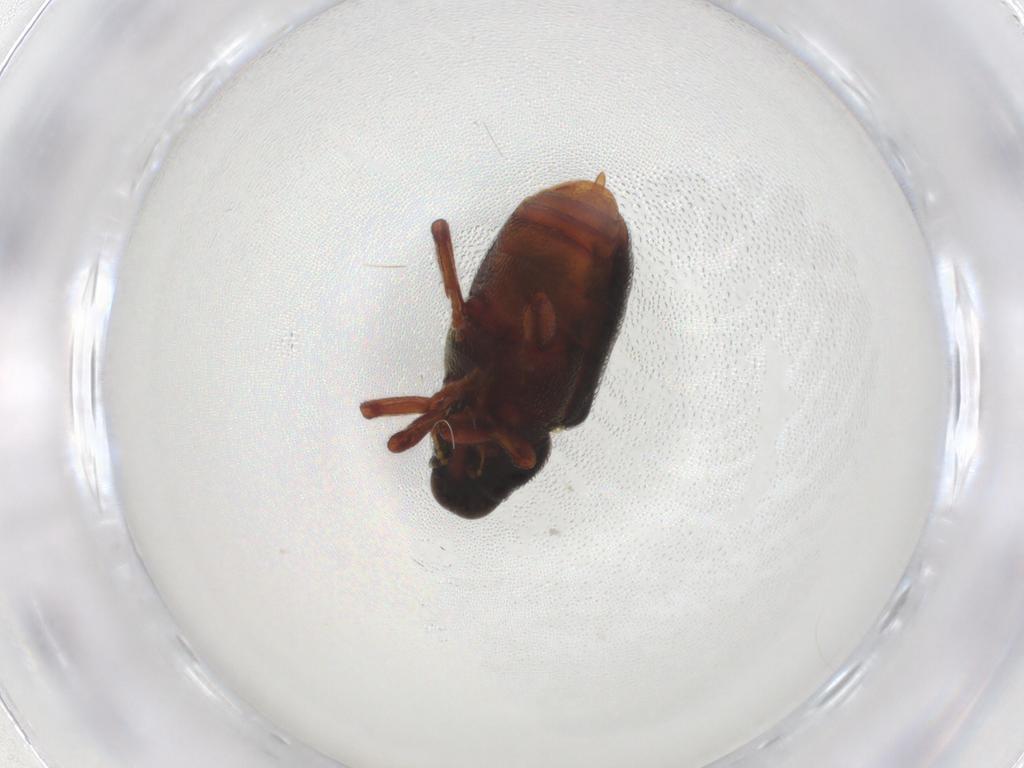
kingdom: Animalia
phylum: Arthropoda
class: Insecta
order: Coleoptera
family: Curculionidae
